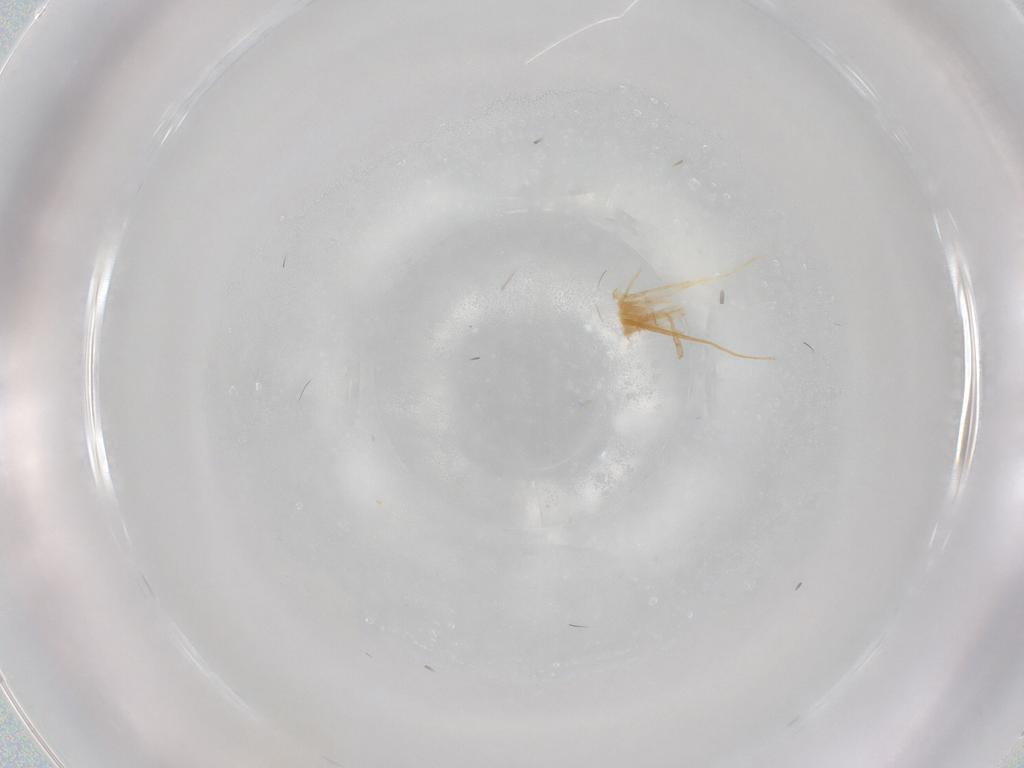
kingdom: Animalia
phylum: Arthropoda
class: Insecta
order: Hemiptera
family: Aleyrodidae
